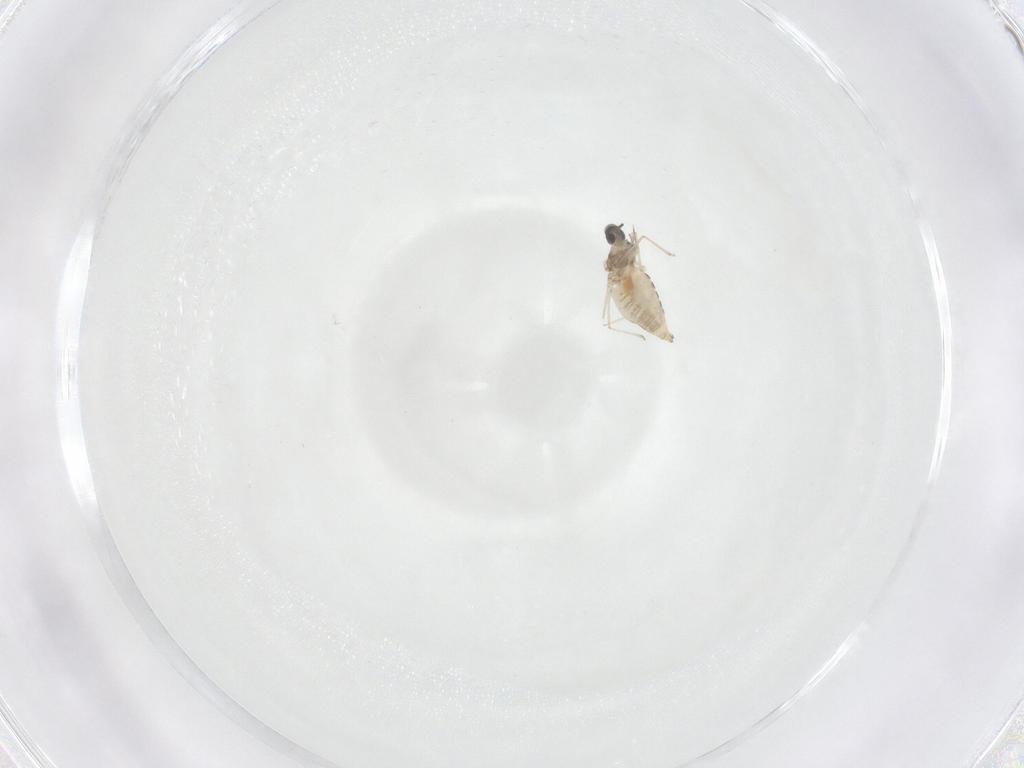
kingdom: Animalia
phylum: Arthropoda
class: Insecta
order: Diptera
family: Cecidomyiidae
